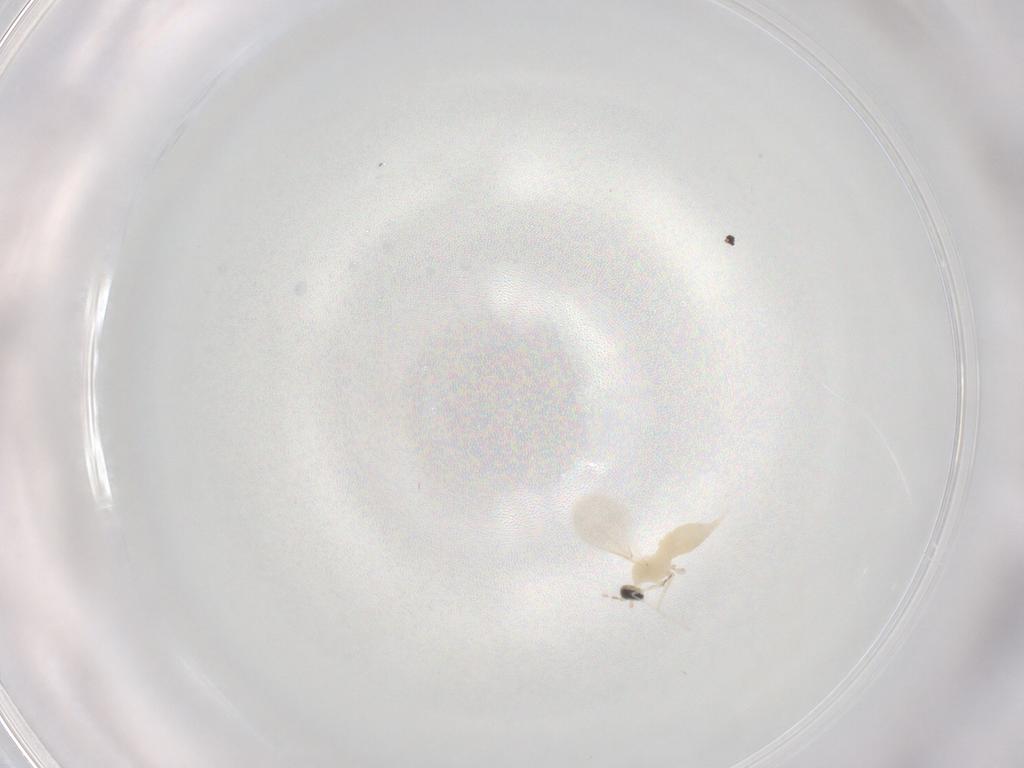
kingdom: Animalia
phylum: Arthropoda
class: Insecta
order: Diptera
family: Cecidomyiidae
